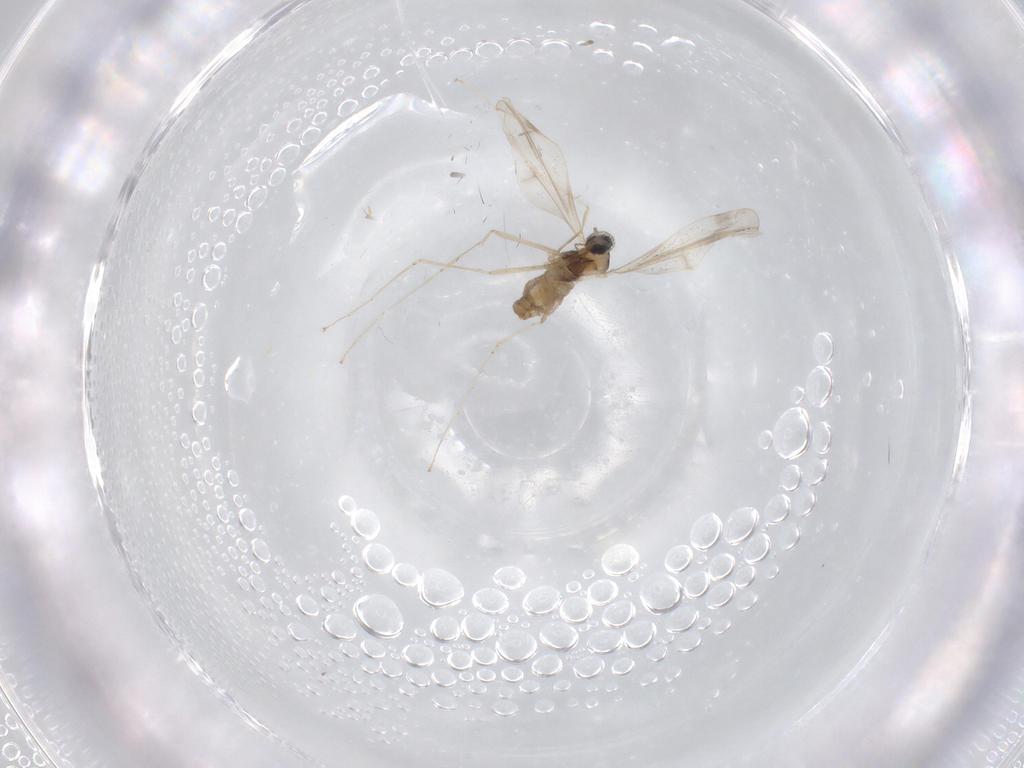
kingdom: Animalia
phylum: Arthropoda
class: Insecta
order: Diptera
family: Cecidomyiidae
